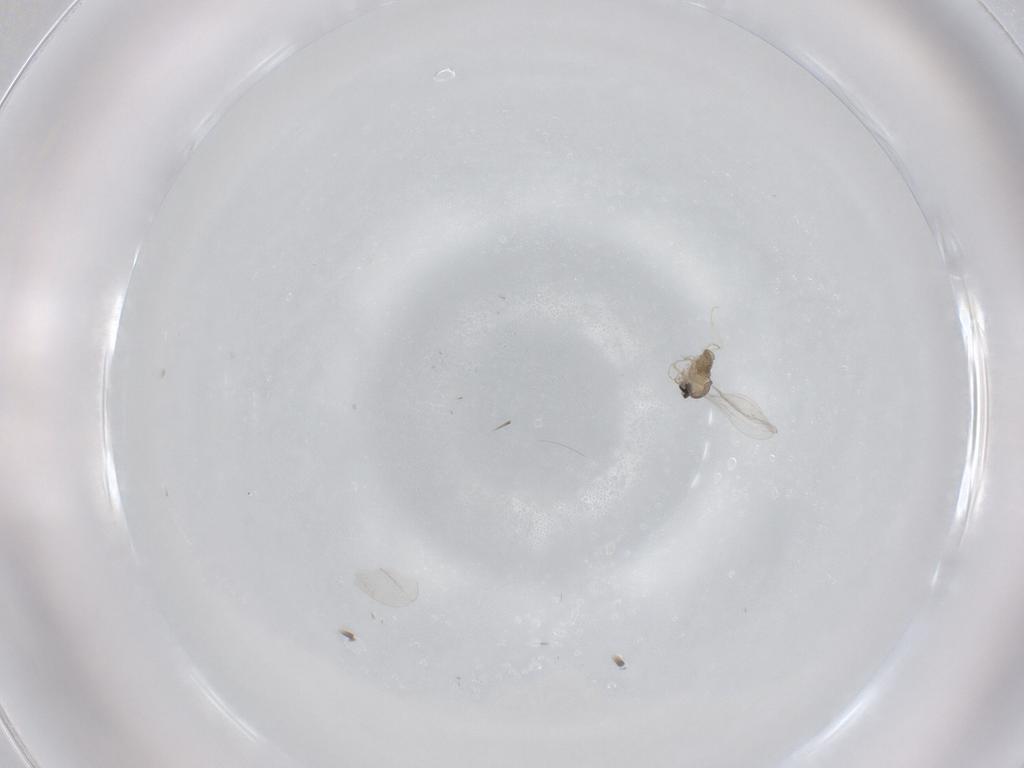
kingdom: Animalia
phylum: Arthropoda
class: Insecta
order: Diptera
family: Cecidomyiidae
